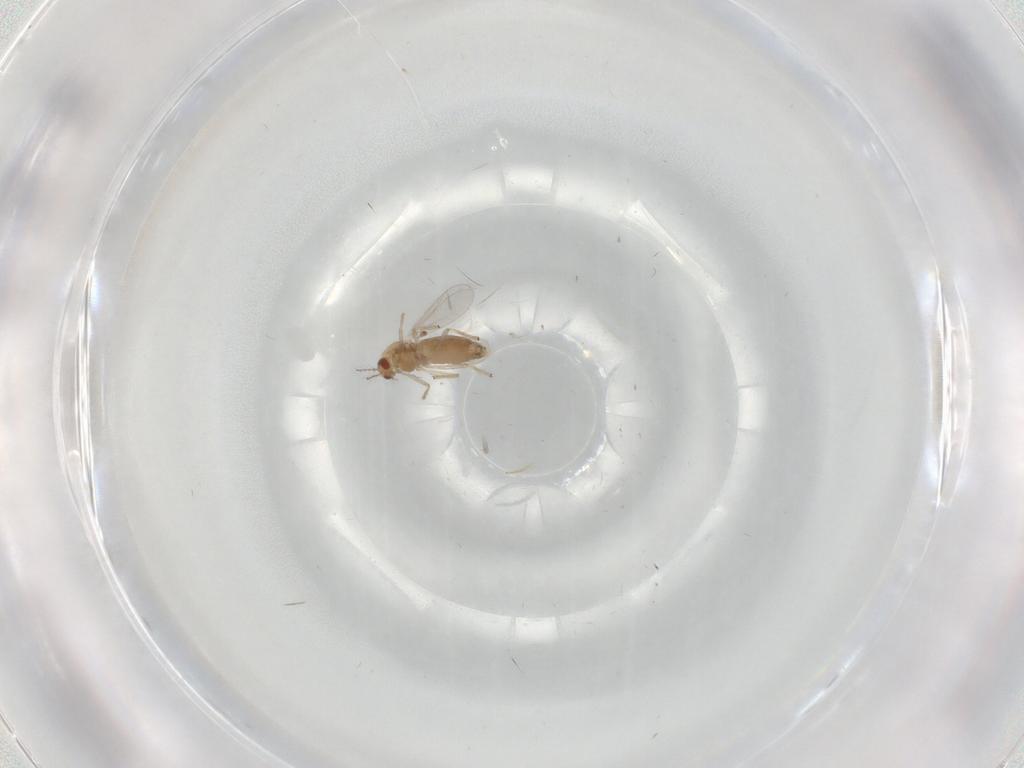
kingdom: Animalia
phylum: Arthropoda
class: Insecta
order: Diptera
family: Chironomidae
